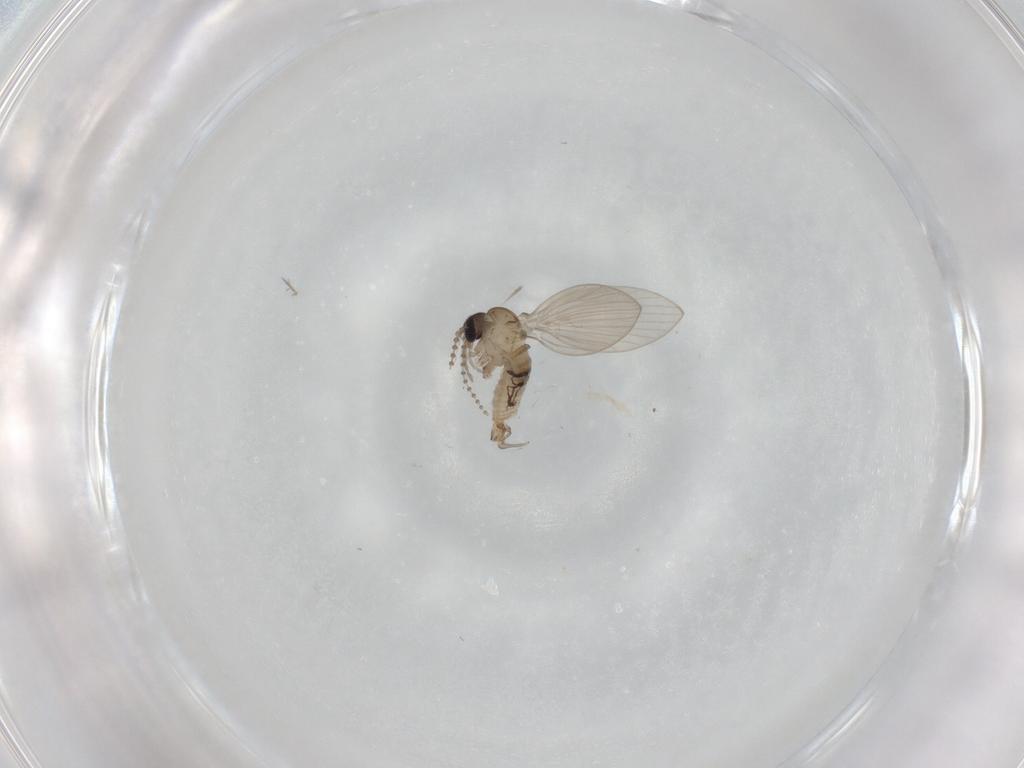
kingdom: Animalia
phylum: Arthropoda
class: Insecta
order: Diptera
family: Psychodidae
